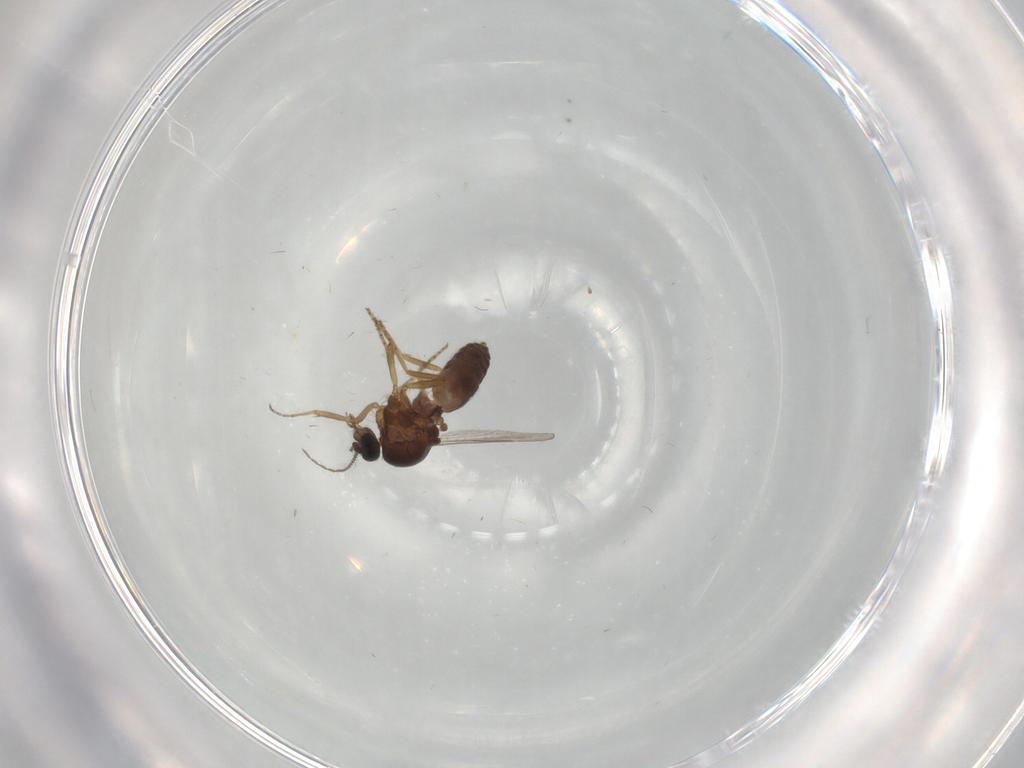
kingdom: Animalia
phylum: Arthropoda
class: Insecta
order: Diptera
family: Ceratopogonidae
